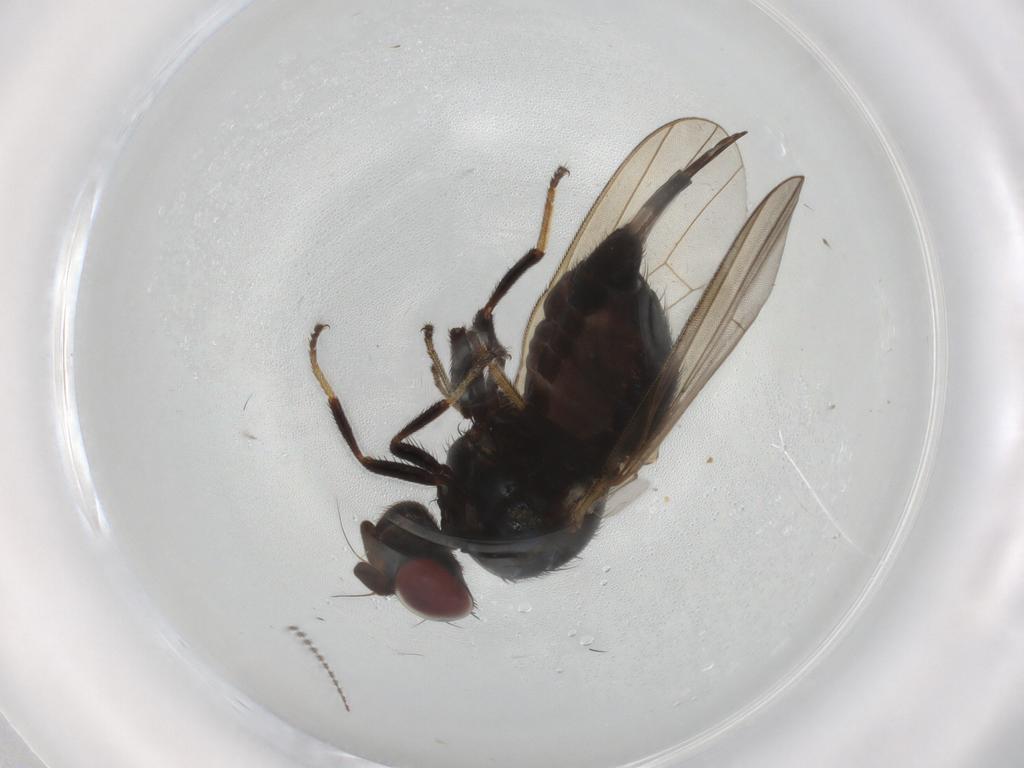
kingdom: Animalia
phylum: Arthropoda
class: Insecta
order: Diptera
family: Keroplatidae
